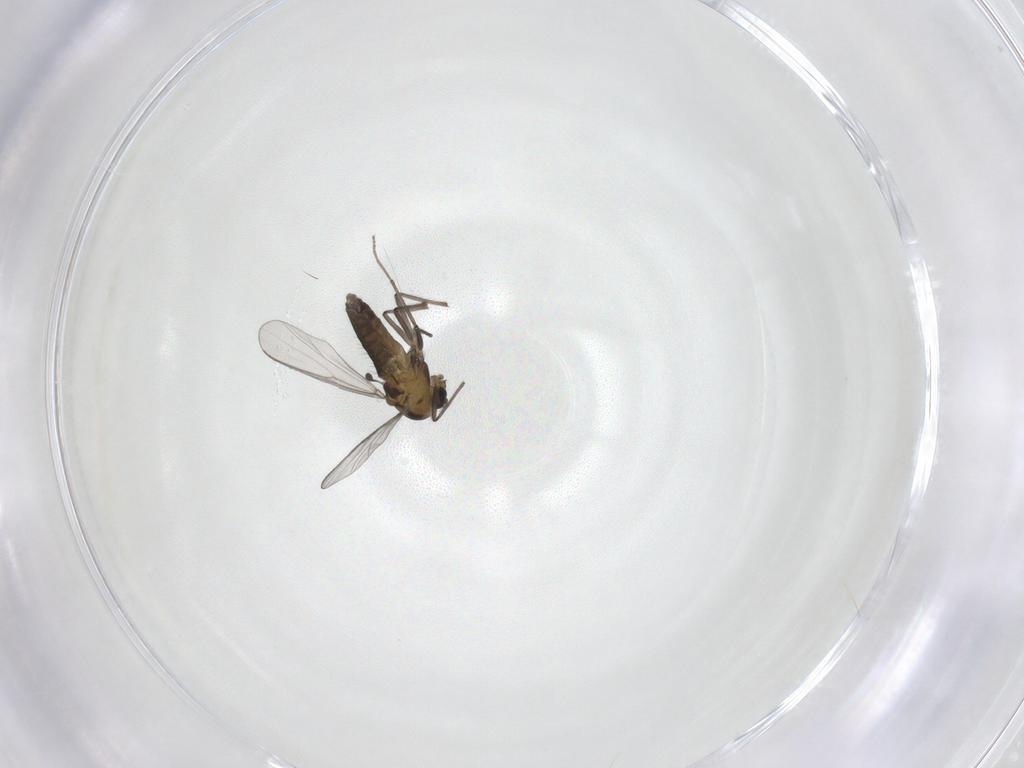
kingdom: Animalia
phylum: Arthropoda
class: Insecta
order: Diptera
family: Chironomidae
